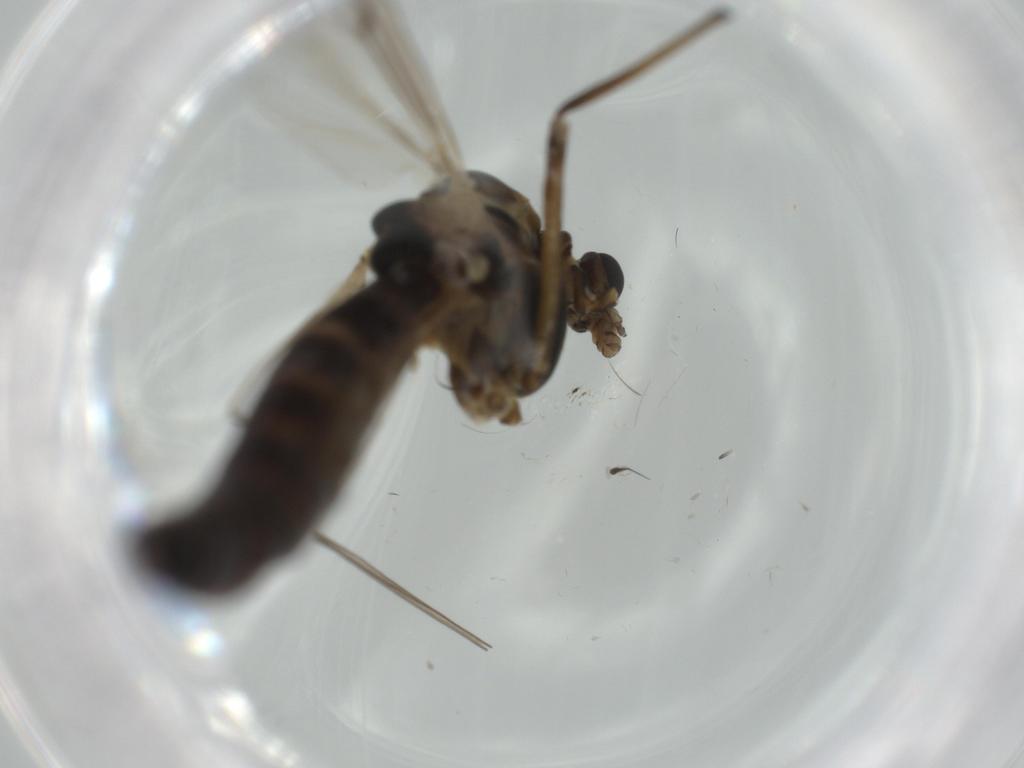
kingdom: Animalia
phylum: Arthropoda
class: Insecta
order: Diptera
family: Chironomidae
